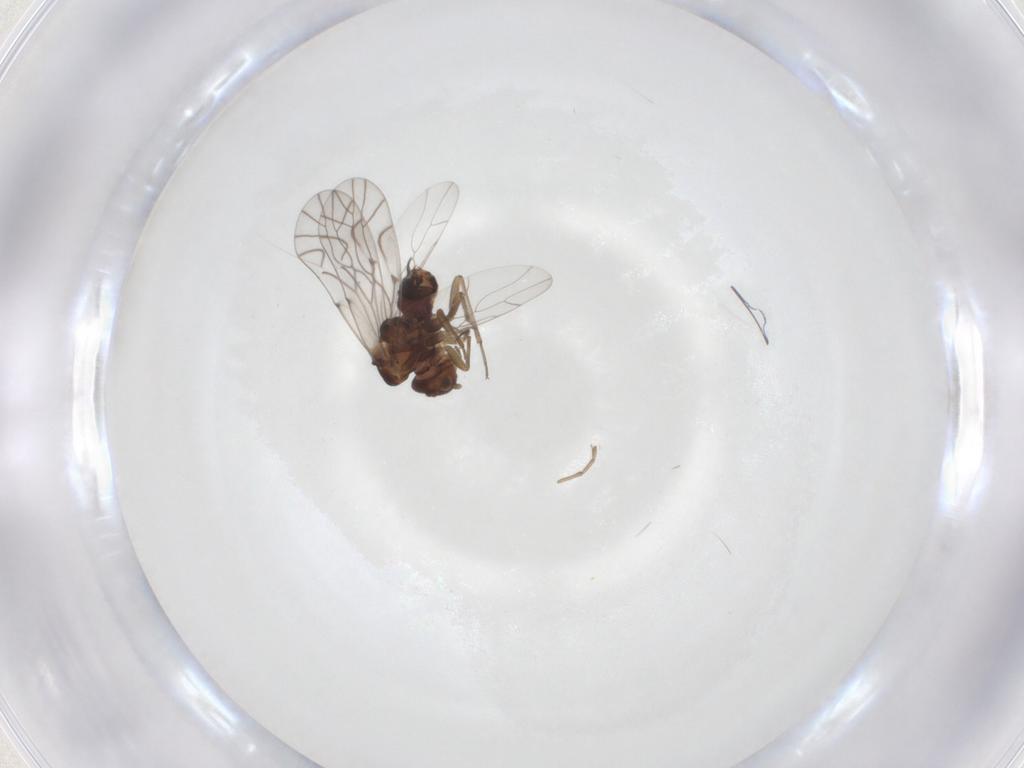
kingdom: Animalia
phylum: Arthropoda
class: Insecta
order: Psocodea
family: Lachesillidae
